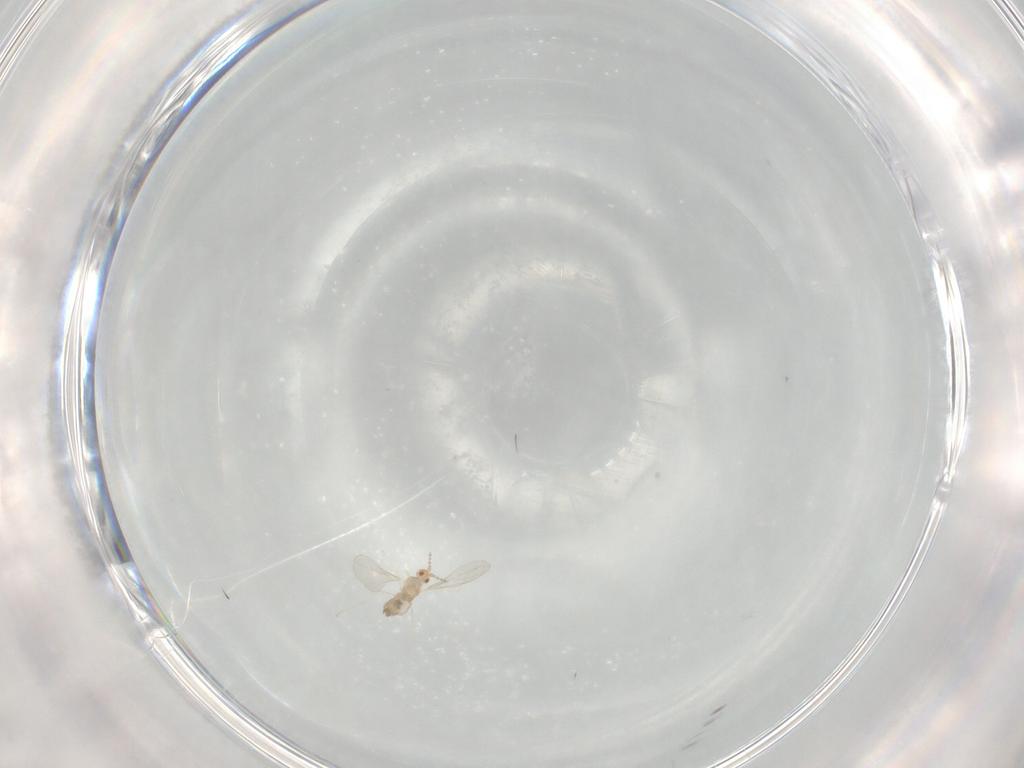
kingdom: Animalia
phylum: Arthropoda
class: Insecta
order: Diptera
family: Cecidomyiidae
